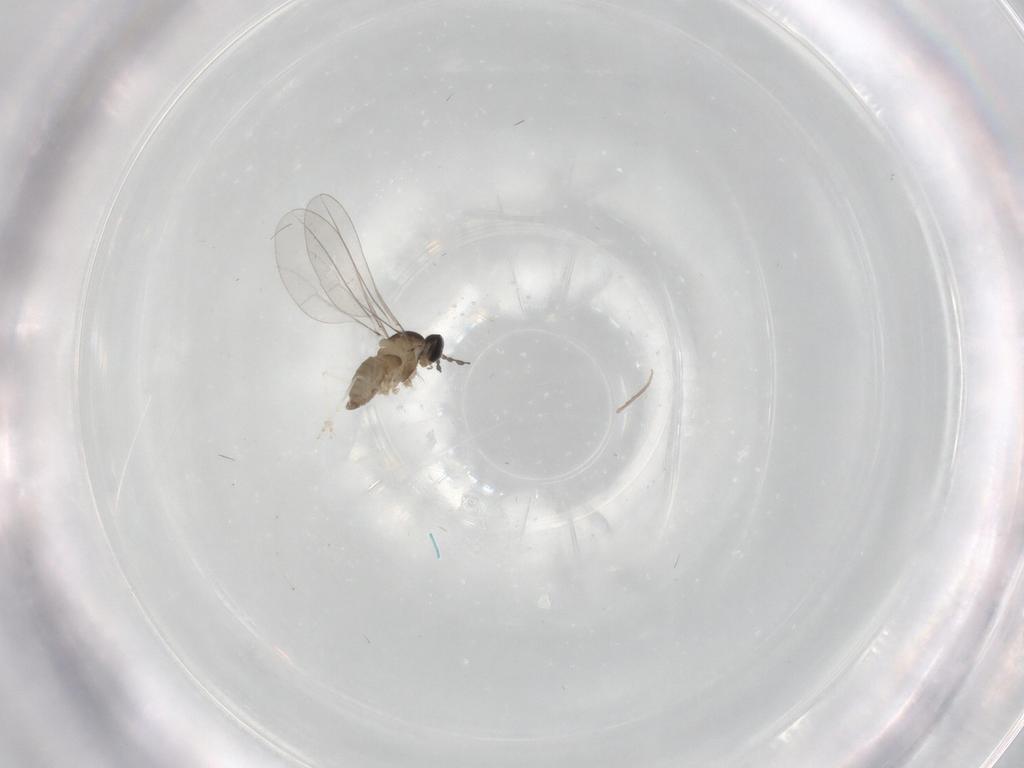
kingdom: Animalia
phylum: Arthropoda
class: Insecta
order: Diptera
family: Cecidomyiidae
